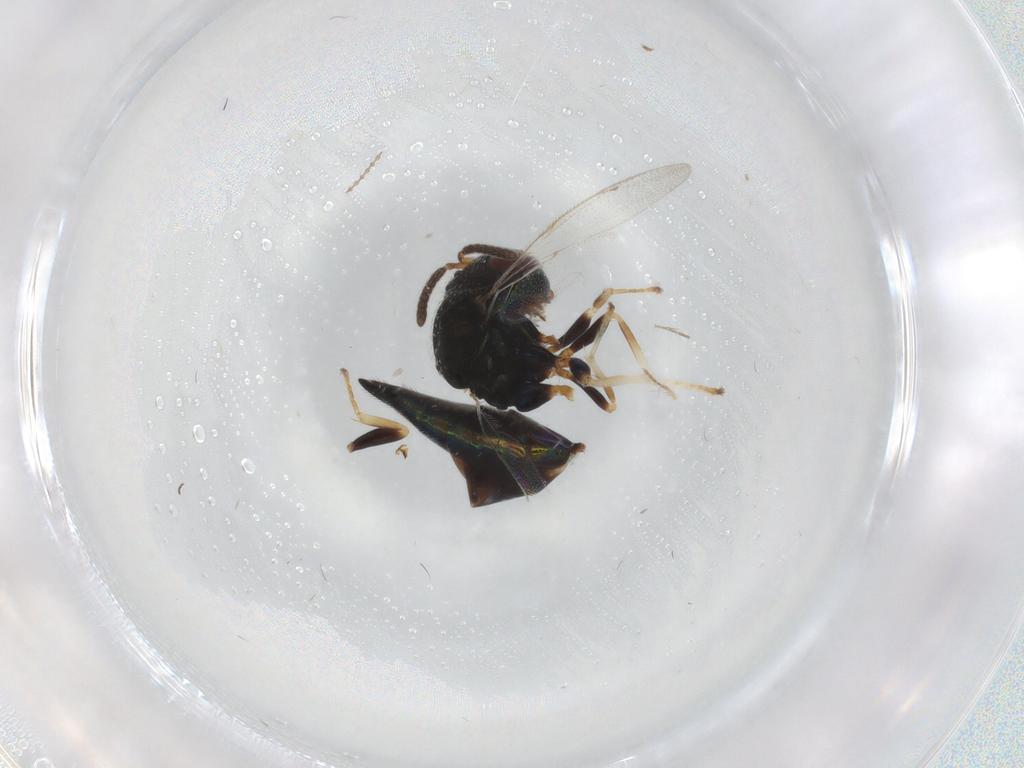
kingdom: Animalia
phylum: Arthropoda
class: Insecta
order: Hymenoptera
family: Pteromalidae
